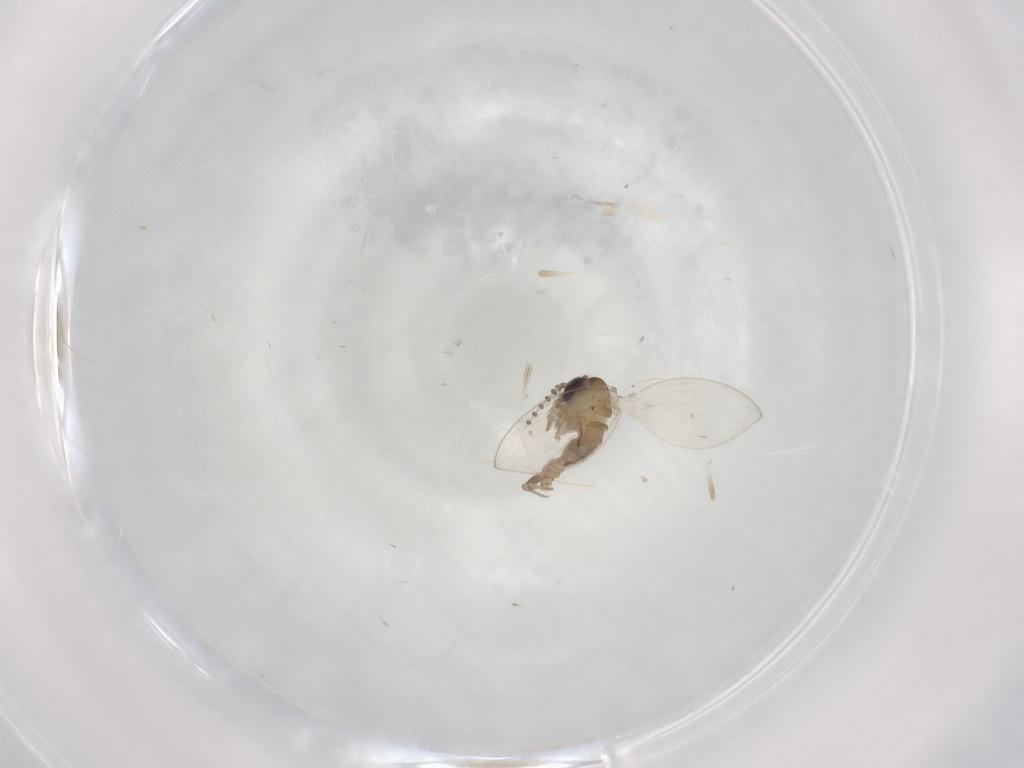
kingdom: Animalia
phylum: Arthropoda
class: Insecta
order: Diptera
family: Psychodidae
